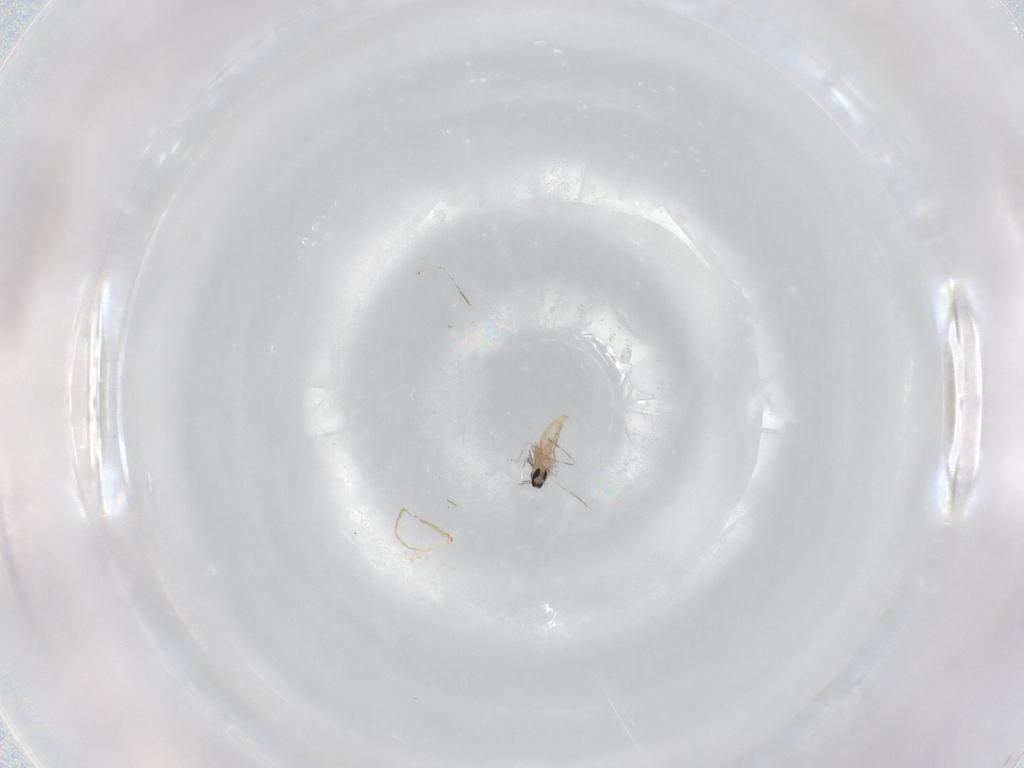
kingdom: Animalia
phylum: Arthropoda
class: Insecta
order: Diptera
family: Cecidomyiidae
